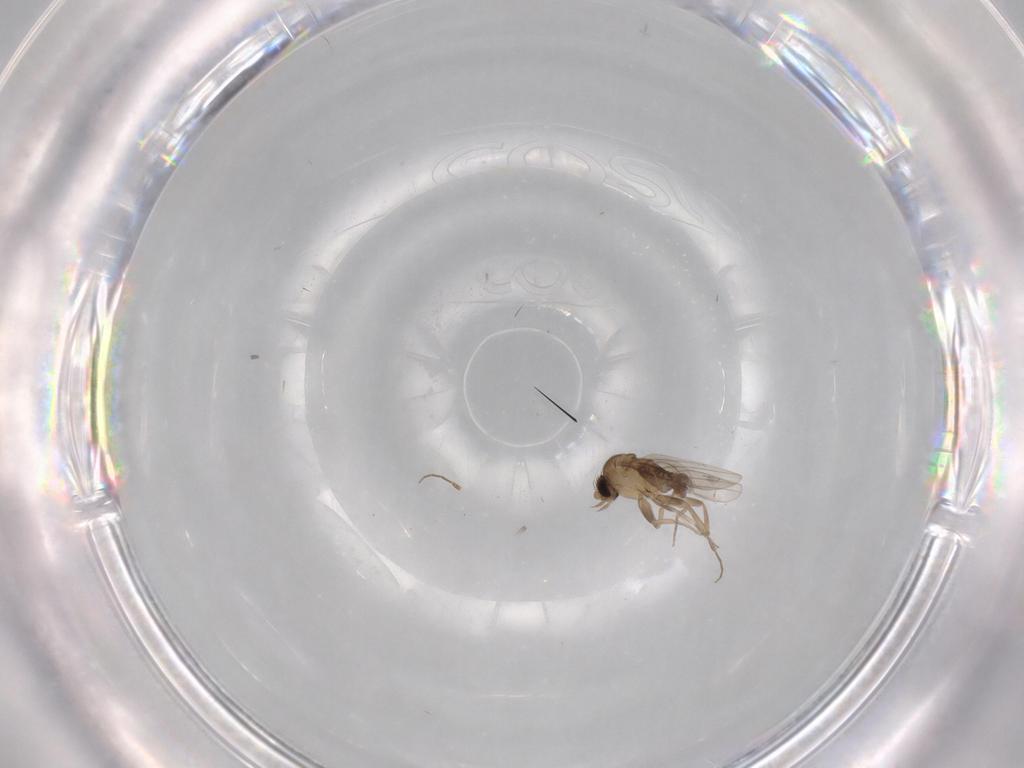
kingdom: Animalia
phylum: Arthropoda
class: Insecta
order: Diptera
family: Phoridae
